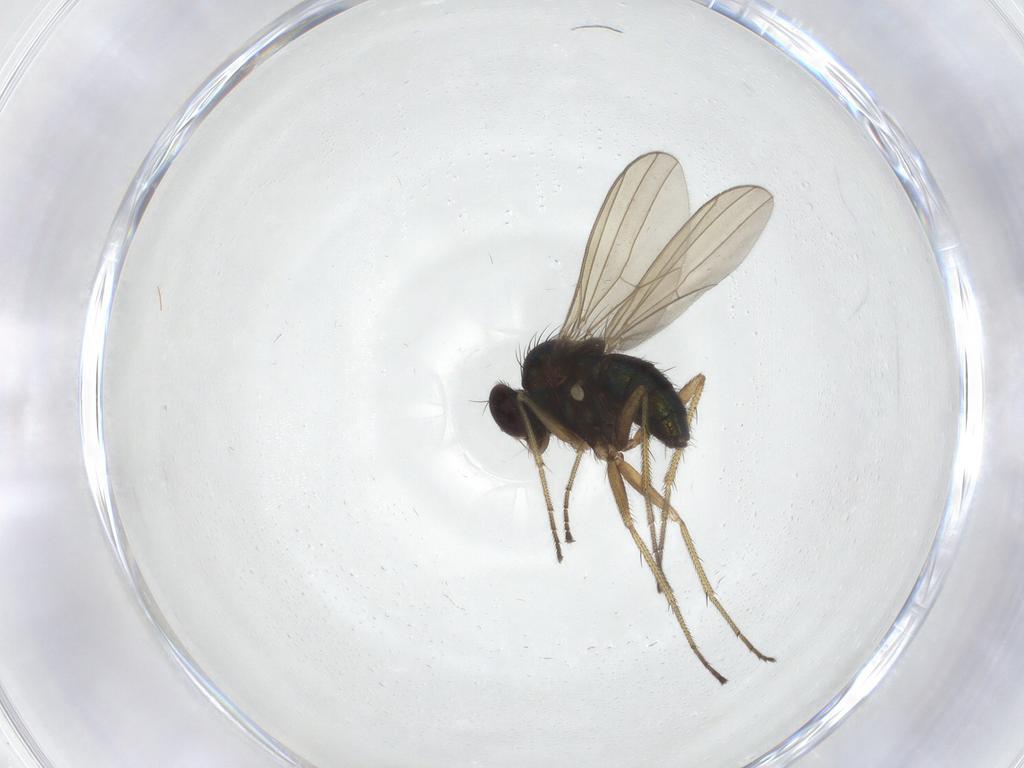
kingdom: Animalia
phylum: Arthropoda
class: Insecta
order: Diptera
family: Dolichopodidae
